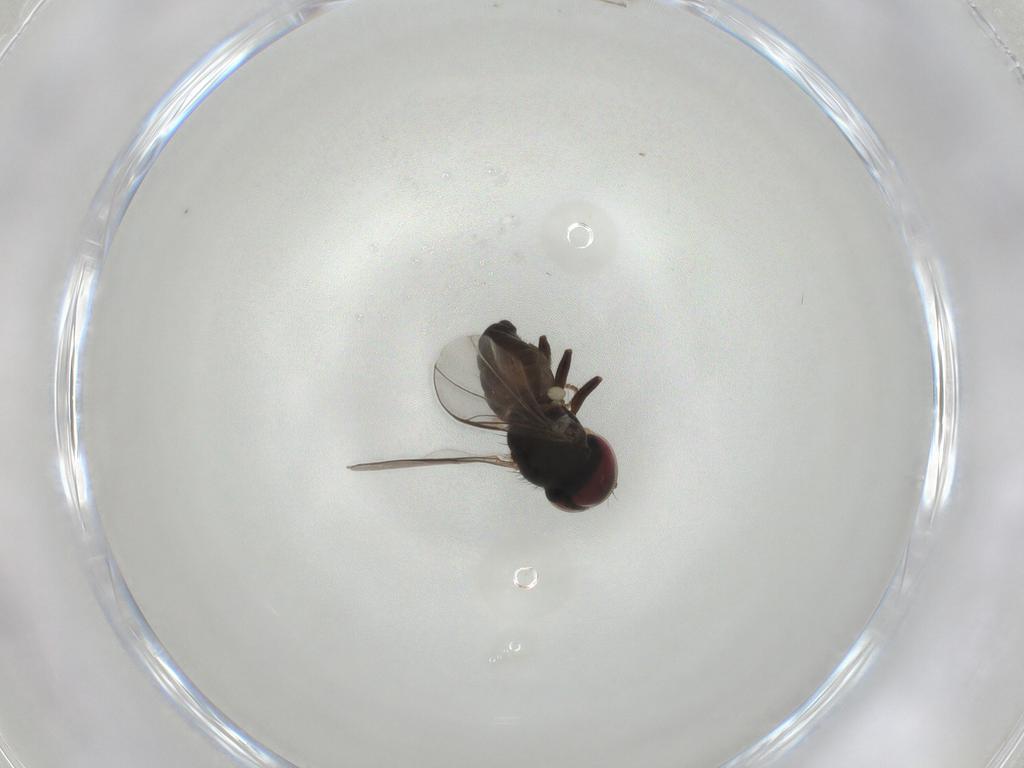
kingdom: Animalia
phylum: Arthropoda
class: Insecta
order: Diptera
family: Pipunculidae
